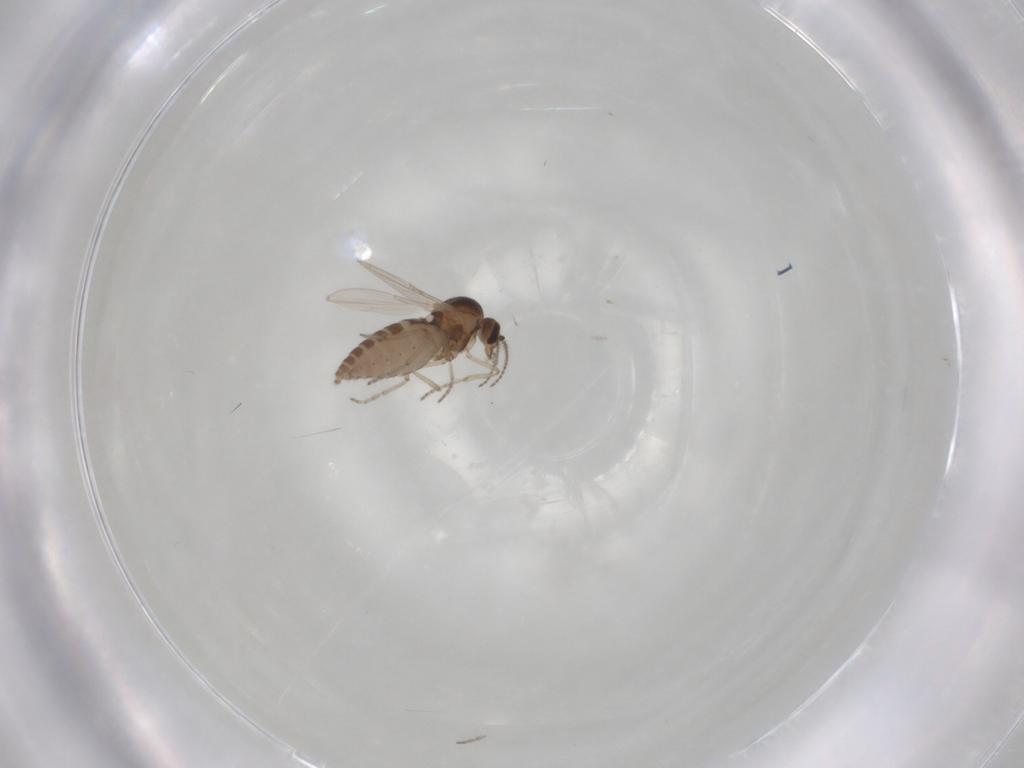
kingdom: Animalia
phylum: Arthropoda
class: Insecta
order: Diptera
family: Ceratopogonidae
